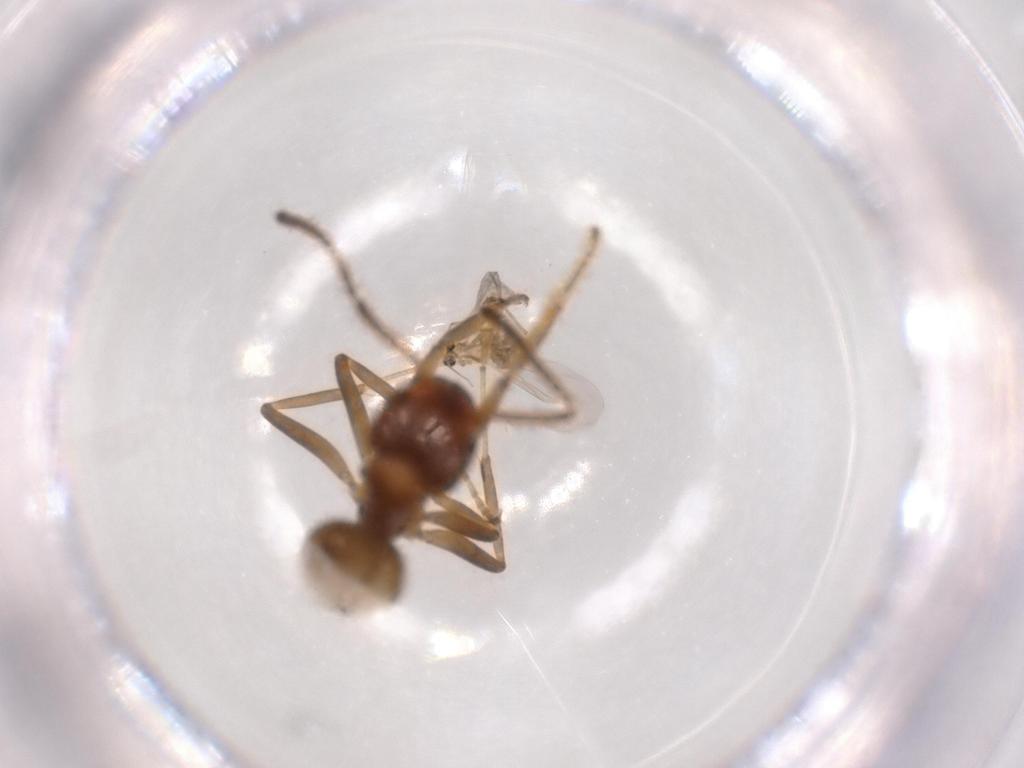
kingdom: Animalia
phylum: Arthropoda
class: Insecta
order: Hymenoptera
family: Formicidae
